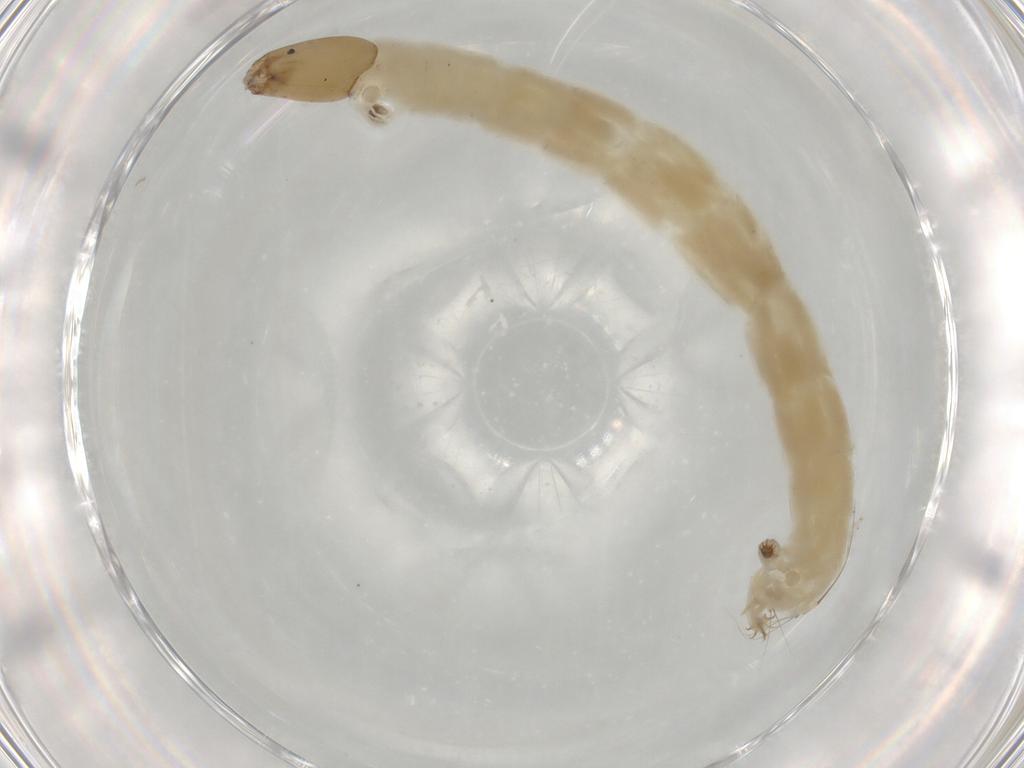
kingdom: Animalia
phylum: Arthropoda
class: Insecta
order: Diptera
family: Chironomidae
